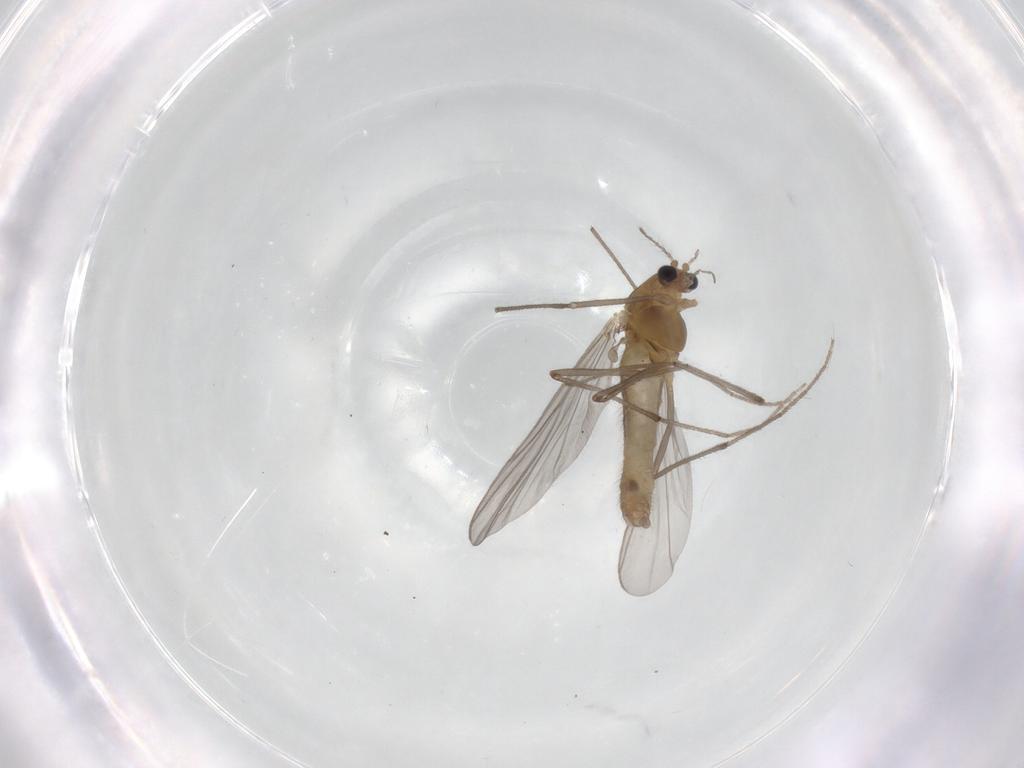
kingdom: Animalia
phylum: Arthropoda
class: Insecta
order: Diptera
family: Chironomidae
